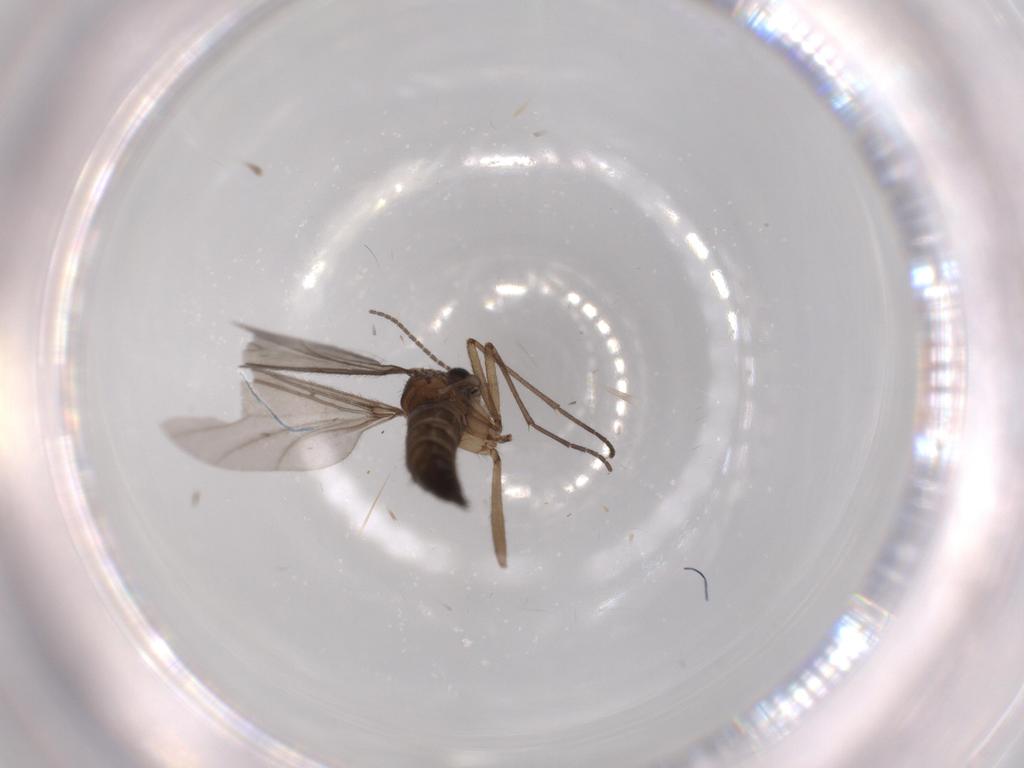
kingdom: Animalia
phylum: Arthropoda
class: Insecta
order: Diptera
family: Sciaridae
